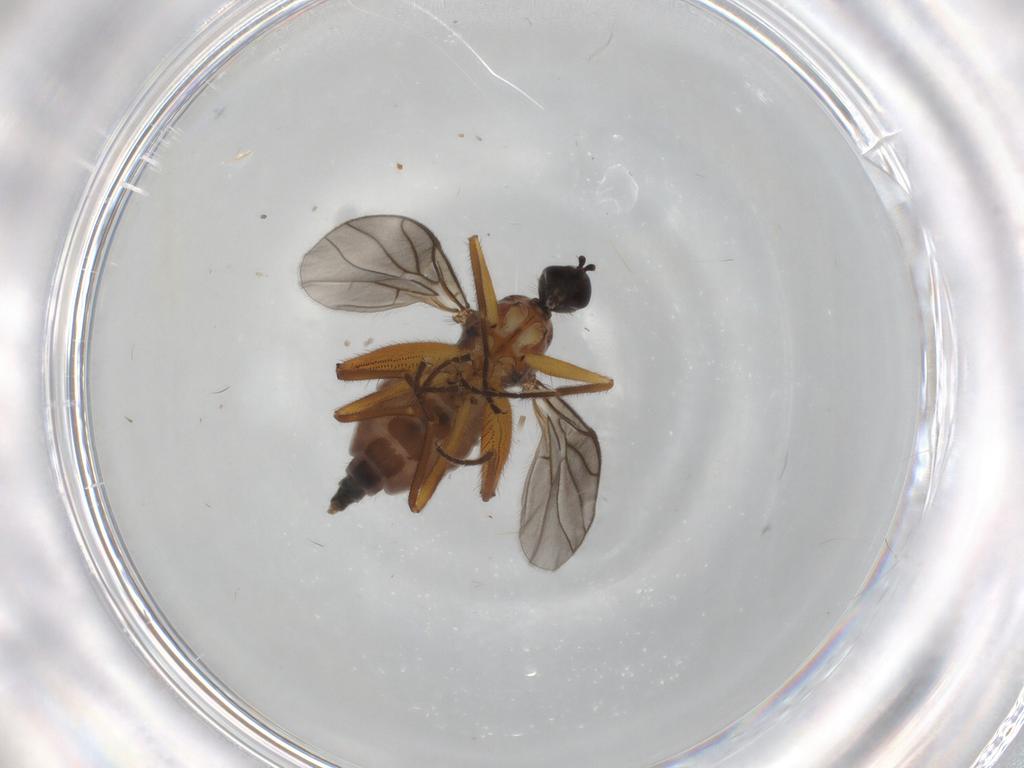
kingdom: Animalia
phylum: Arthropoda
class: Insecta
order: Diptera
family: Hybotidae
